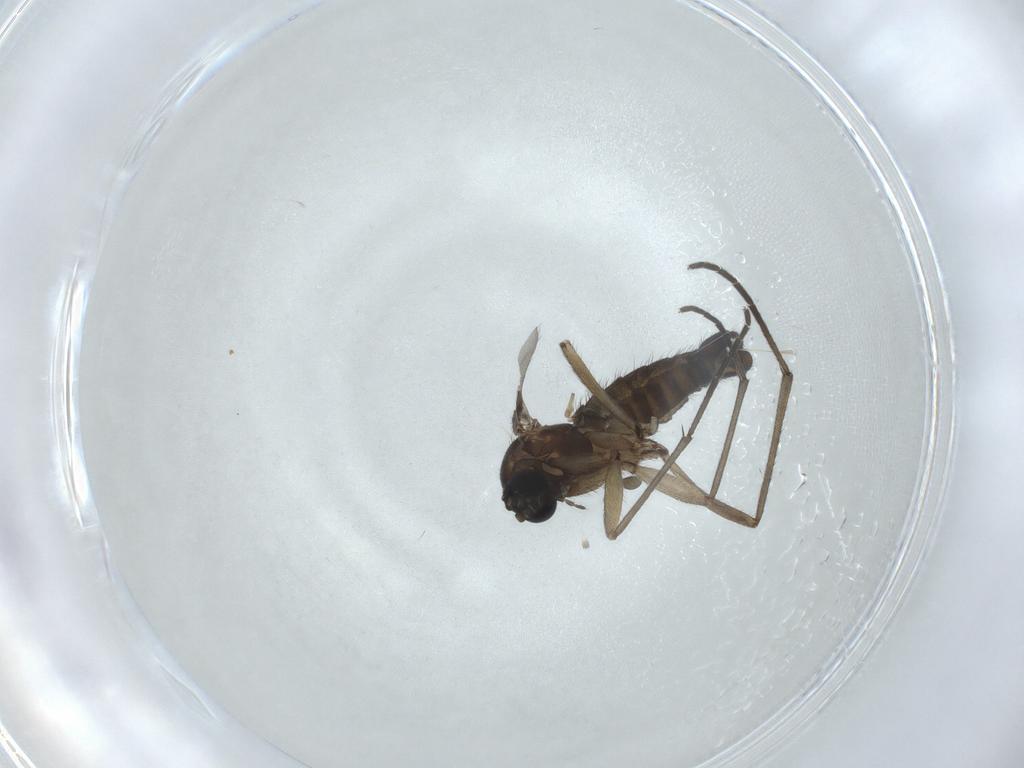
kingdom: Animalia
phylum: Arthropoda
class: Insecta
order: Diptera
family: Sciaridae
